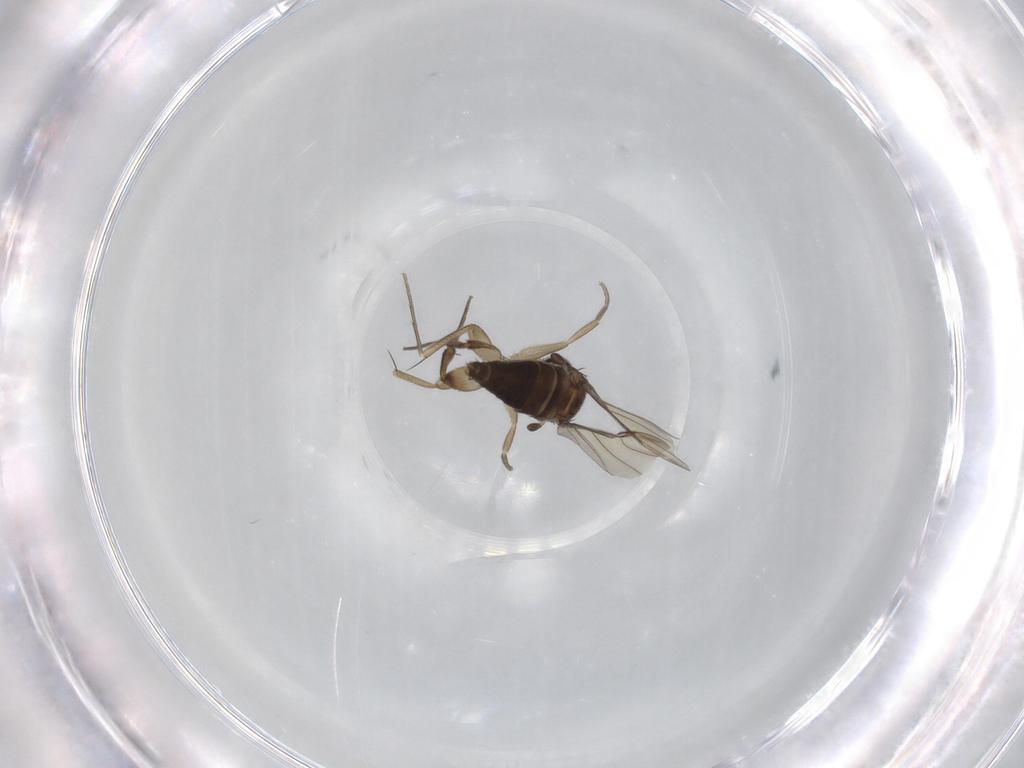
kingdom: Animalia
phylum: Arthropoda
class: Insecta
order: Diptera
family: Phoridae
